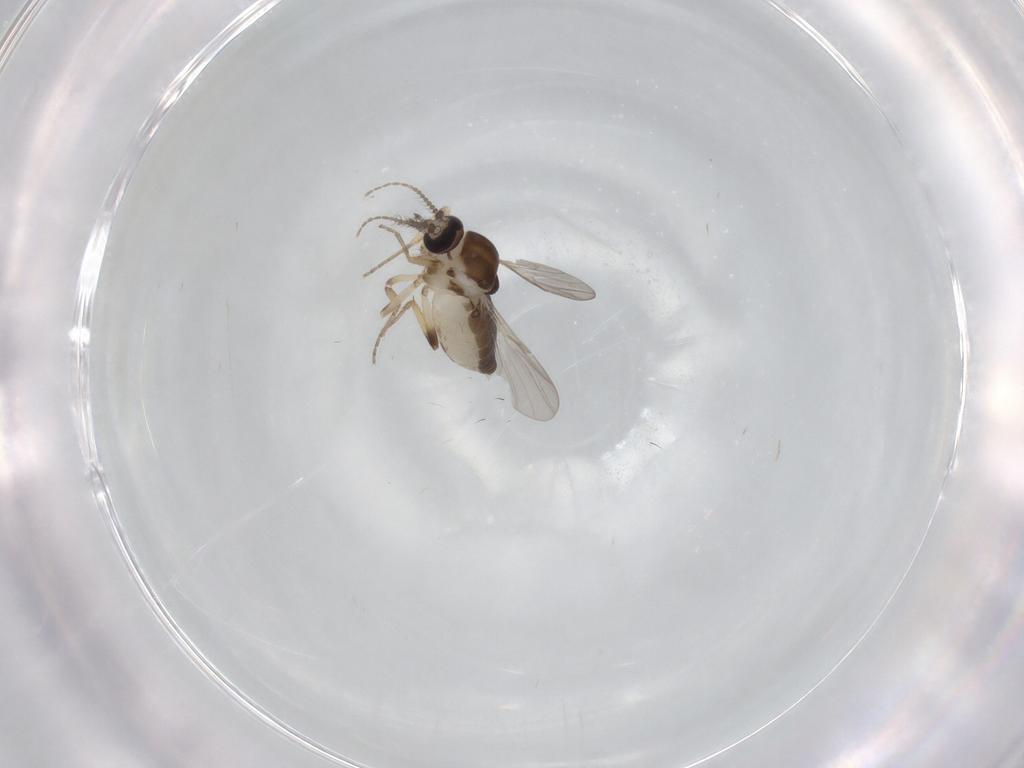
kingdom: Animalia
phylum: Arthropoda
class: Insecta
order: Diptera
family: Ceratopogonidae
